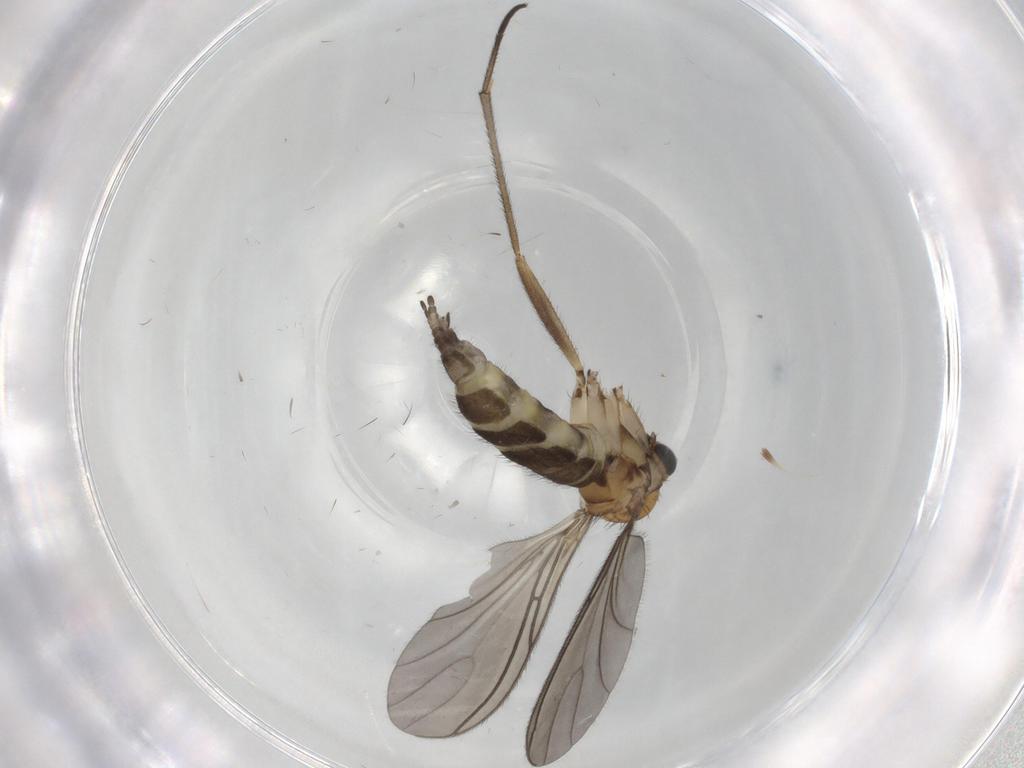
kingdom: Animalia
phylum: Arthropoda
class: Insecta
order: Diptera
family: Sciaridae
